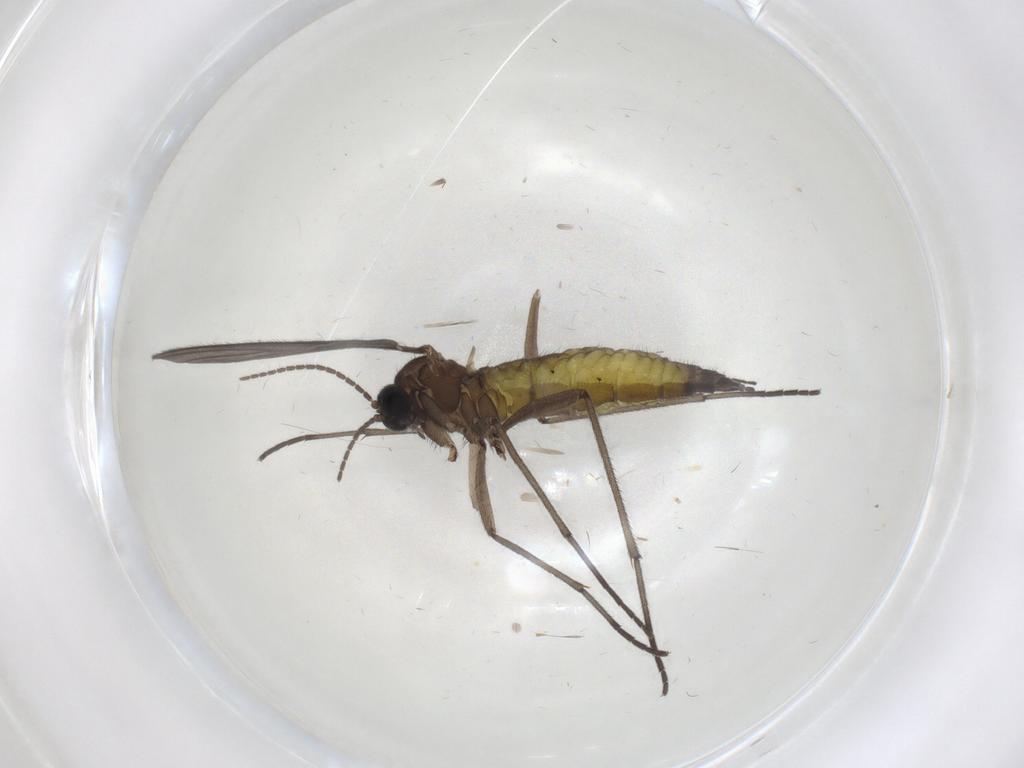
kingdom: Animalia
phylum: Arthropoda
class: Insecta
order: Diptera
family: Sciaridae
